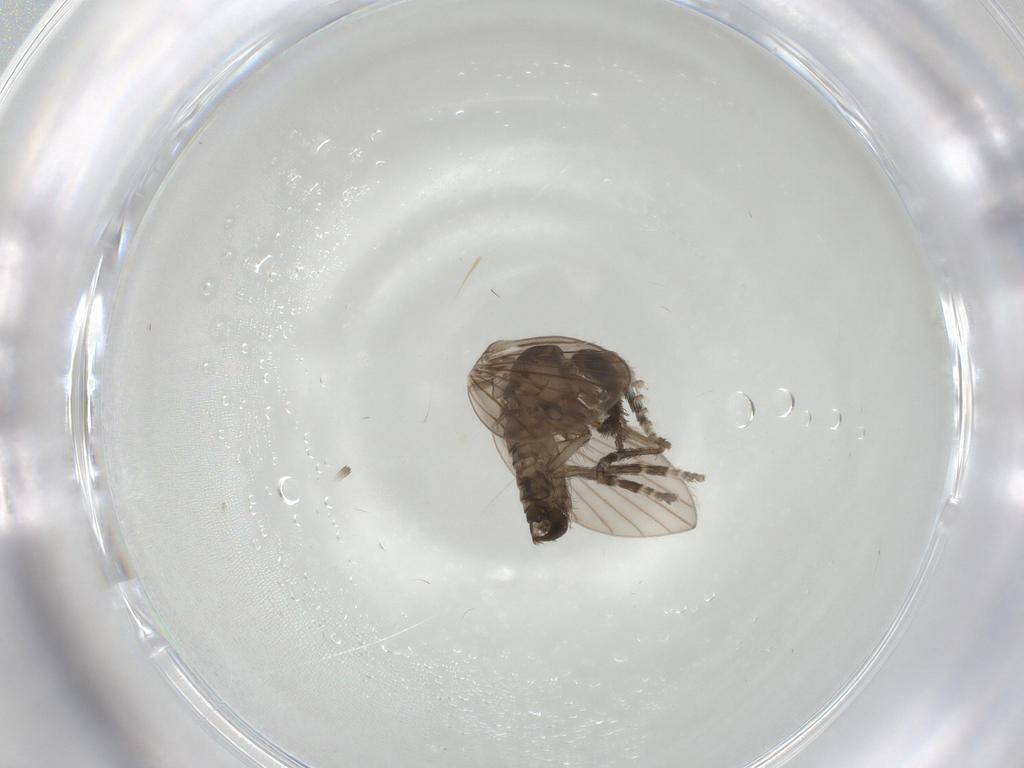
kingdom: Animalia
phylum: Arthropoda
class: Insecta
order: Diptera
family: Psychodidae
